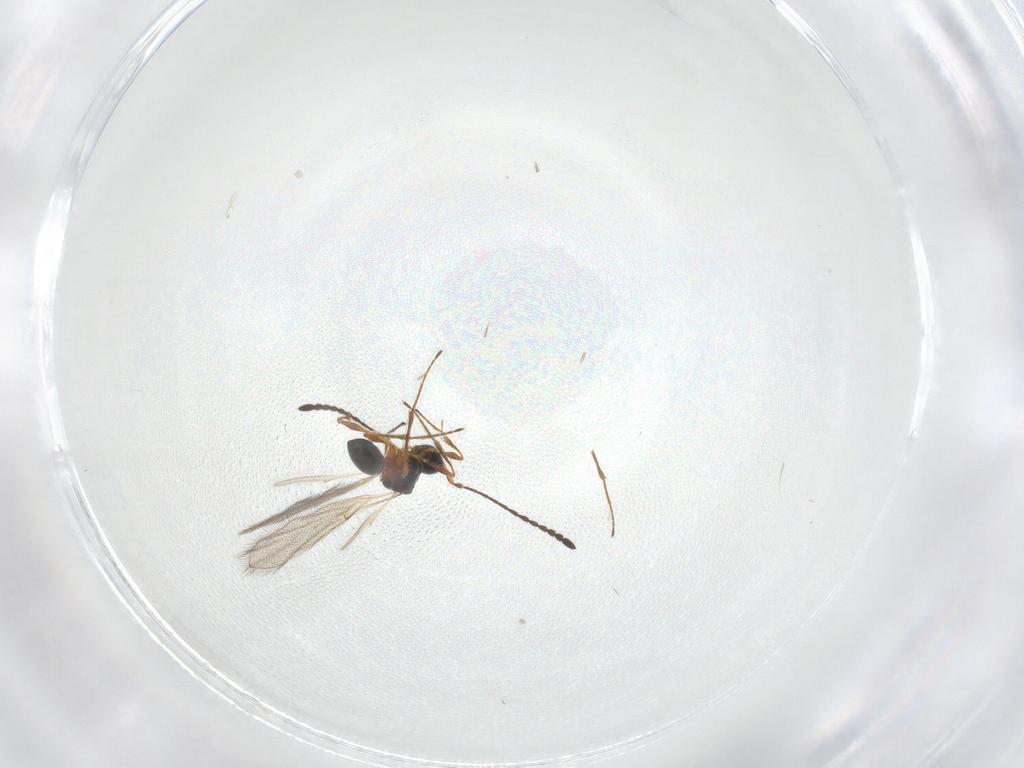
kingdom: Animalia
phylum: Arthropoda
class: Insecta
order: Hymenoptera
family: Diapriidae
